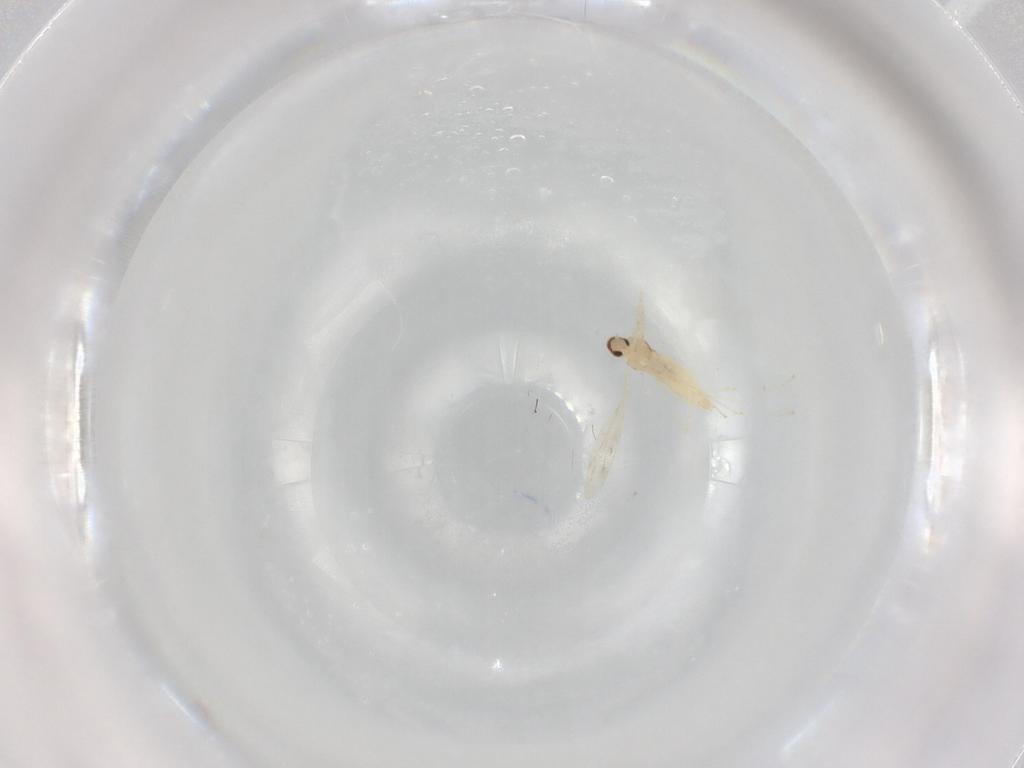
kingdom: Animalia
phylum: Arthropoda
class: Insecta
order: Diptera
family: Cecidomyiidae
